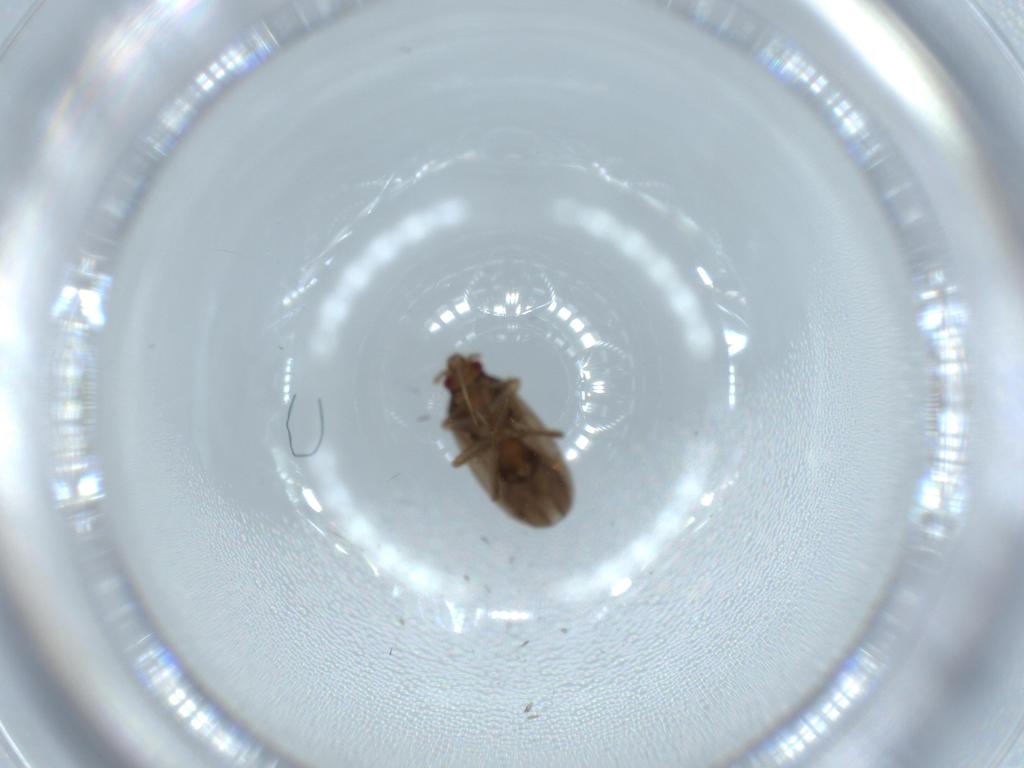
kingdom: Animalia
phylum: Arthropoda
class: Insecta
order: Hemiptera
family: Ceratocombidae
